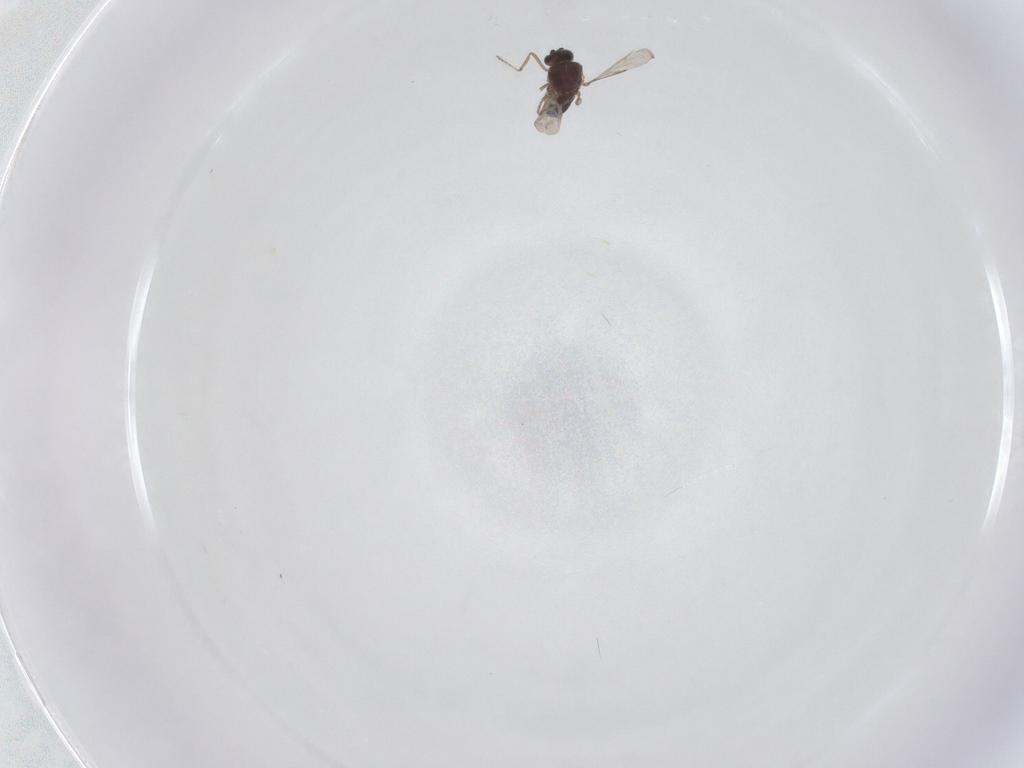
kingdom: Animalia
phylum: Arthropoda
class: Insecta
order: Diptera
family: Ceratopogonidae
